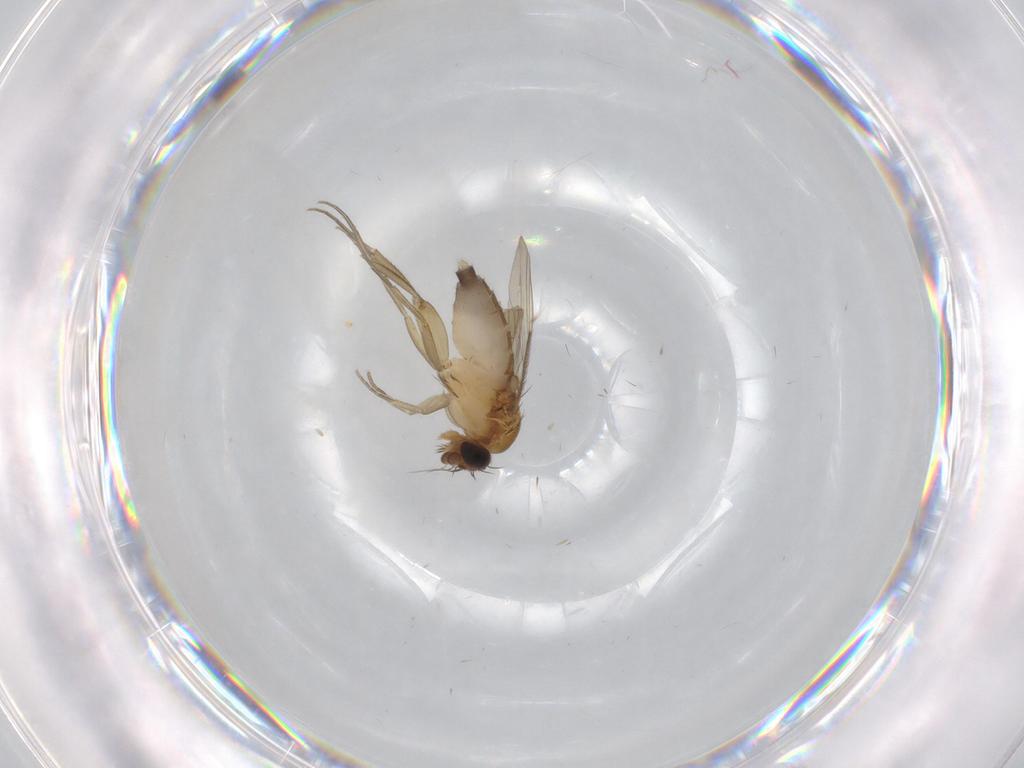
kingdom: Animalia
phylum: Arthropoda
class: Insecta
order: Diptera
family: Phoridae
